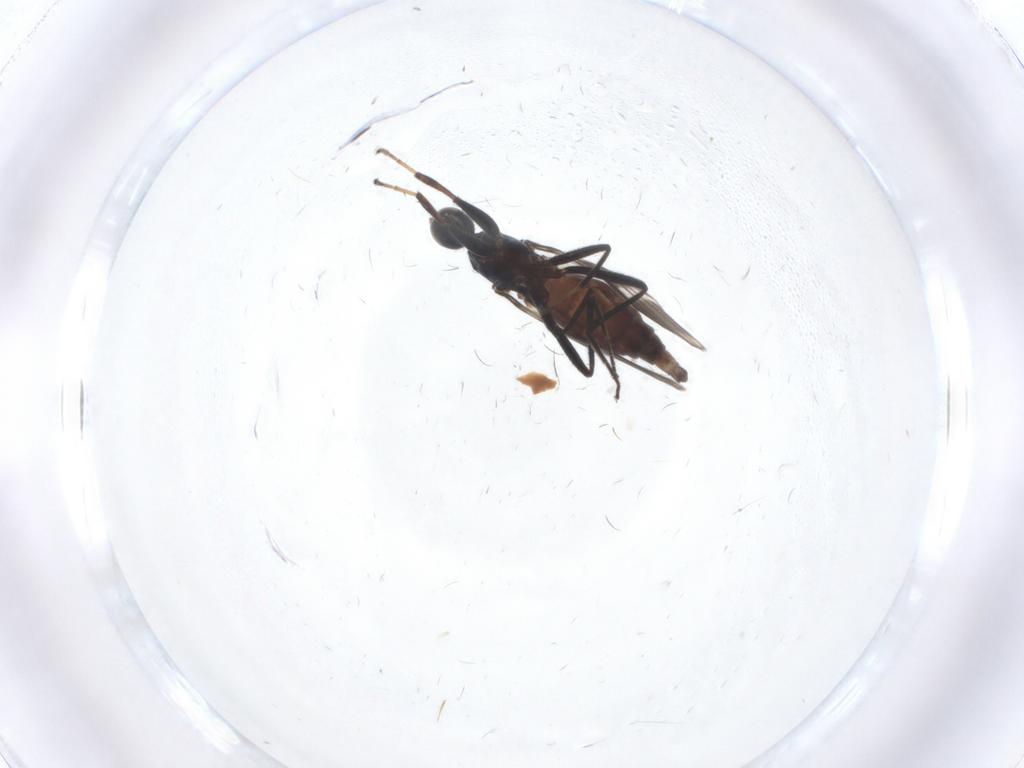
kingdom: Animalia
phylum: Arthropoda
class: Insecta
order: Diptera
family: Hybotidae
